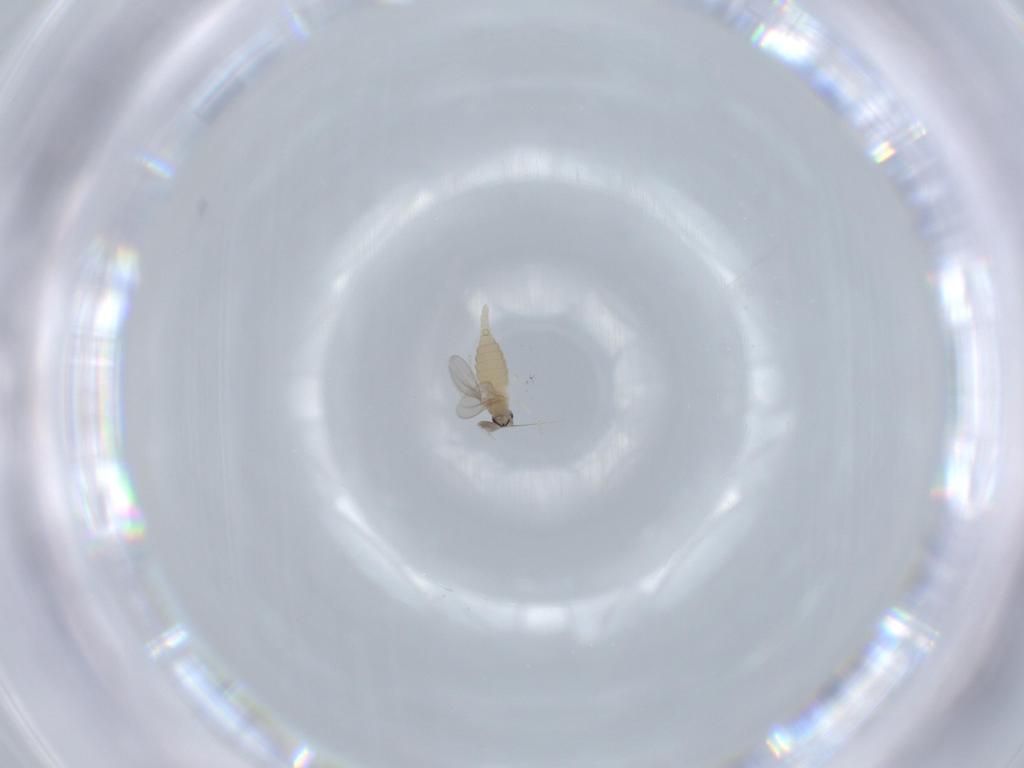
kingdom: Animalia
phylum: Arthropoda
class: Insecta
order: Diptera
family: Cecidomyiidae
